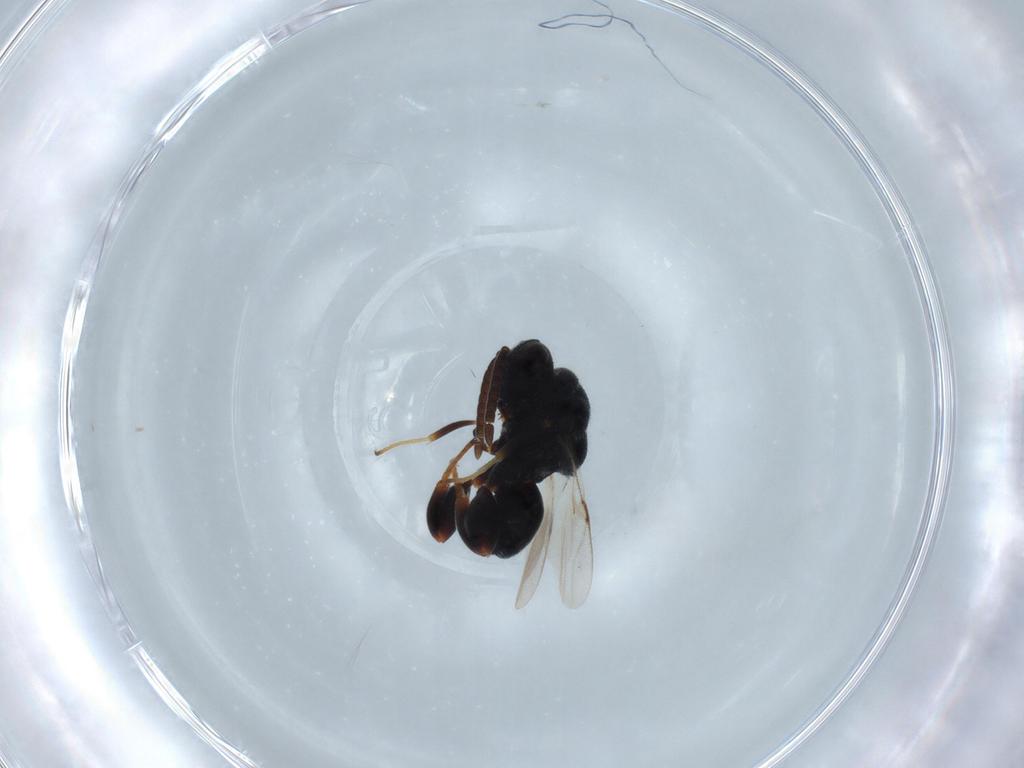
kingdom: Animalia
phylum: Arthropoda
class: Insecta
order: Hymenoptera
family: Trichogrammatidae
